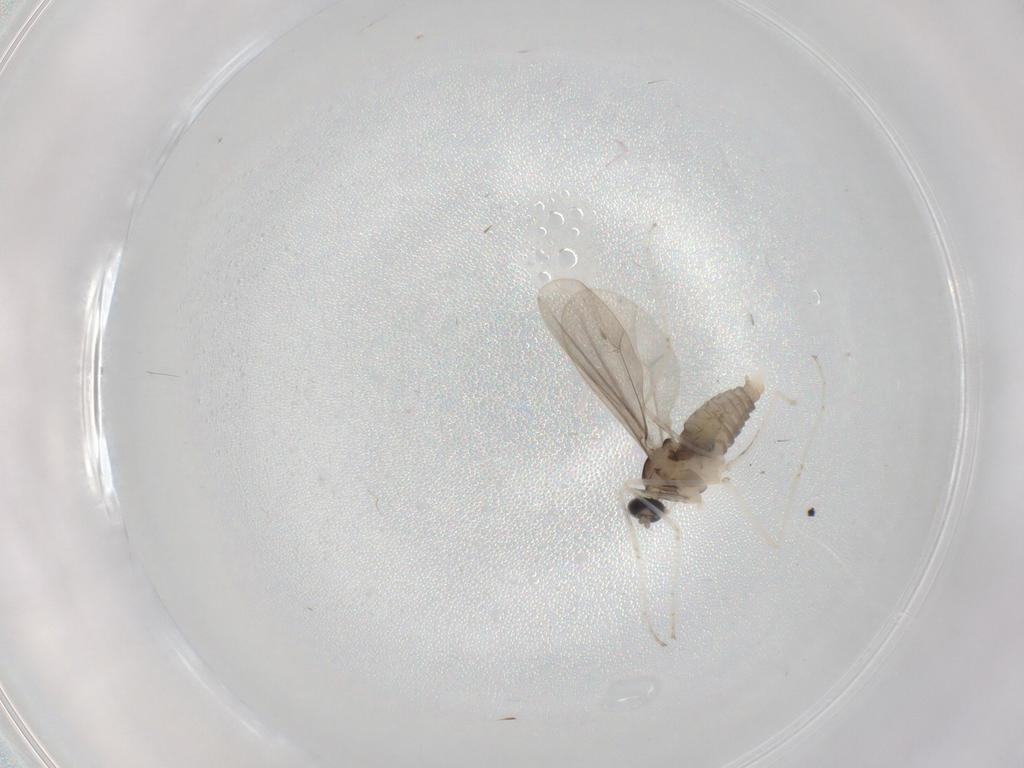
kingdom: Animalia
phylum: Arthropoda
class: Insecta
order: Diptera
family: Cecidomyiidae
